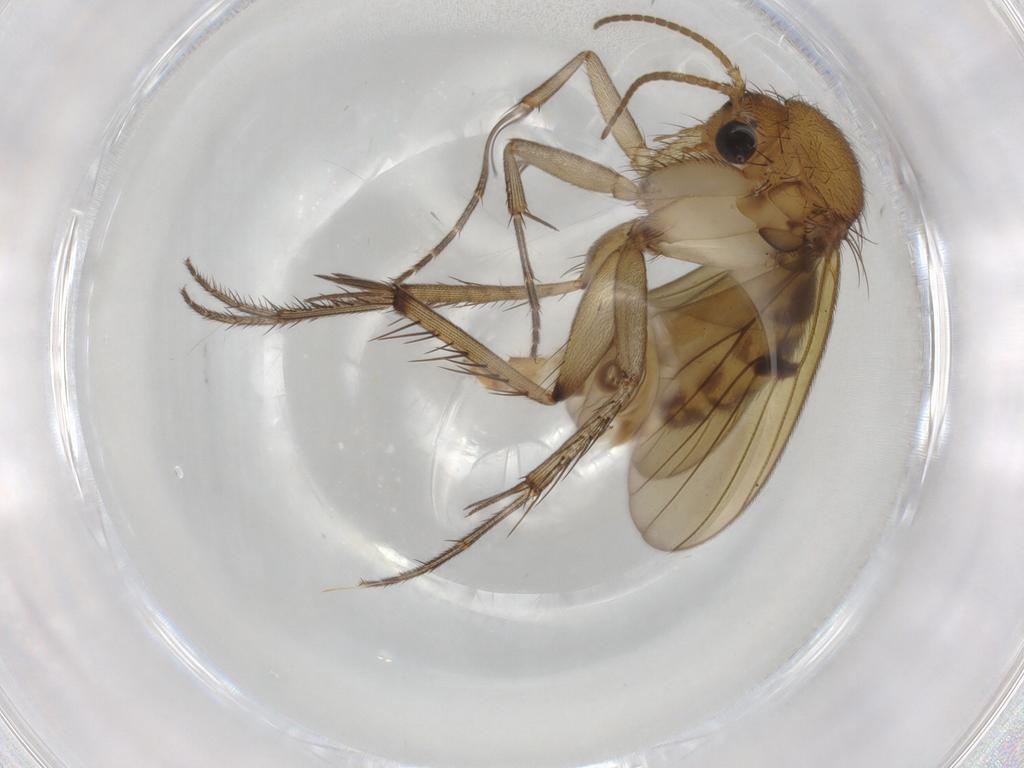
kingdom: Animalia
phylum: Arthropoda
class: Insecta
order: Diptera
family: Mycetophilidae
